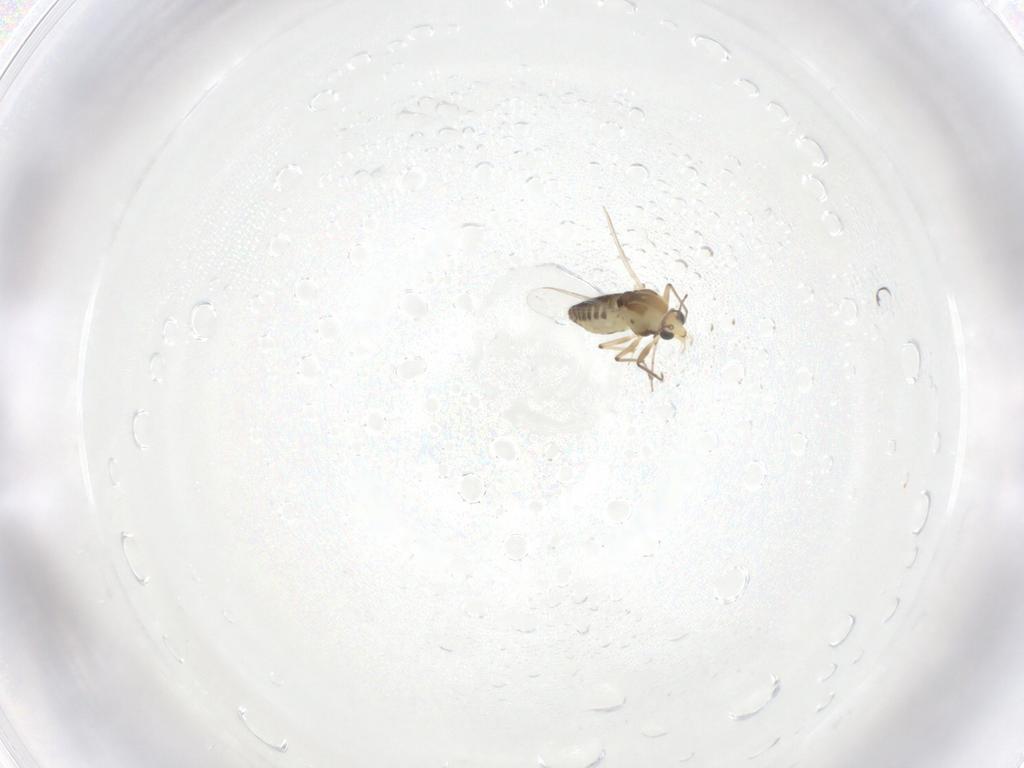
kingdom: Animalia
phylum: Arthropoda
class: Insecta
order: Diptera
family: Chironomidae
